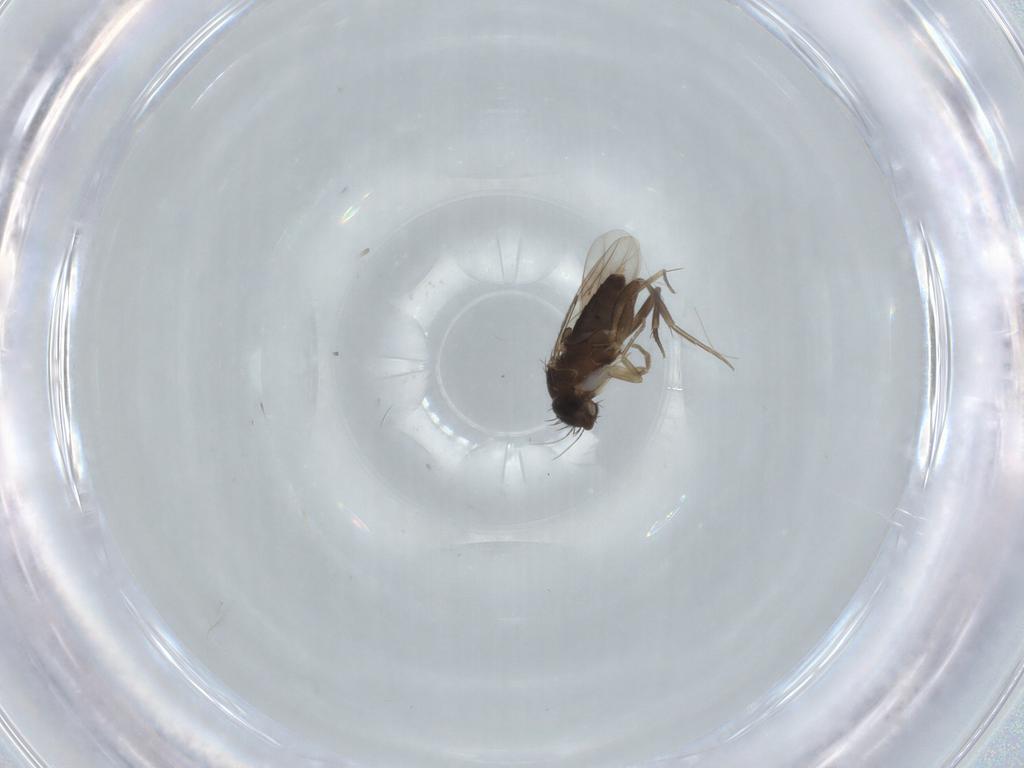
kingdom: Animalia
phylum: Arthropoda
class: Insecta
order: Diptera
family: Phoridae
